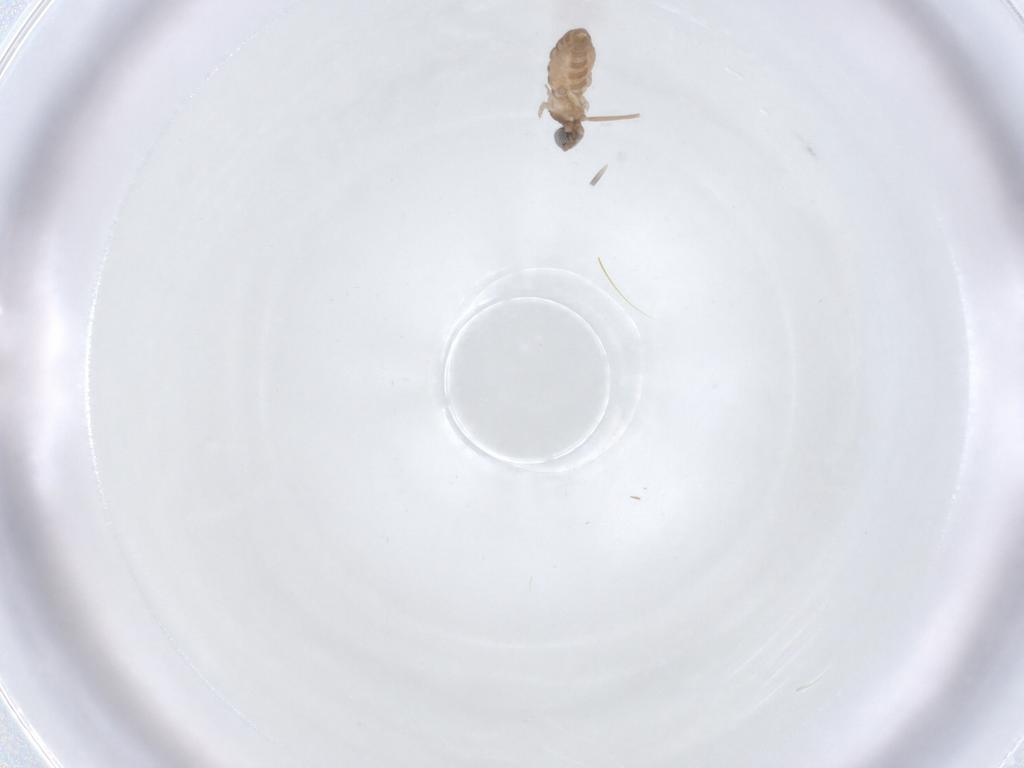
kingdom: Animalia
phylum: Arthropoda
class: Insecta
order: Diptera
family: Cecidomyiidae
